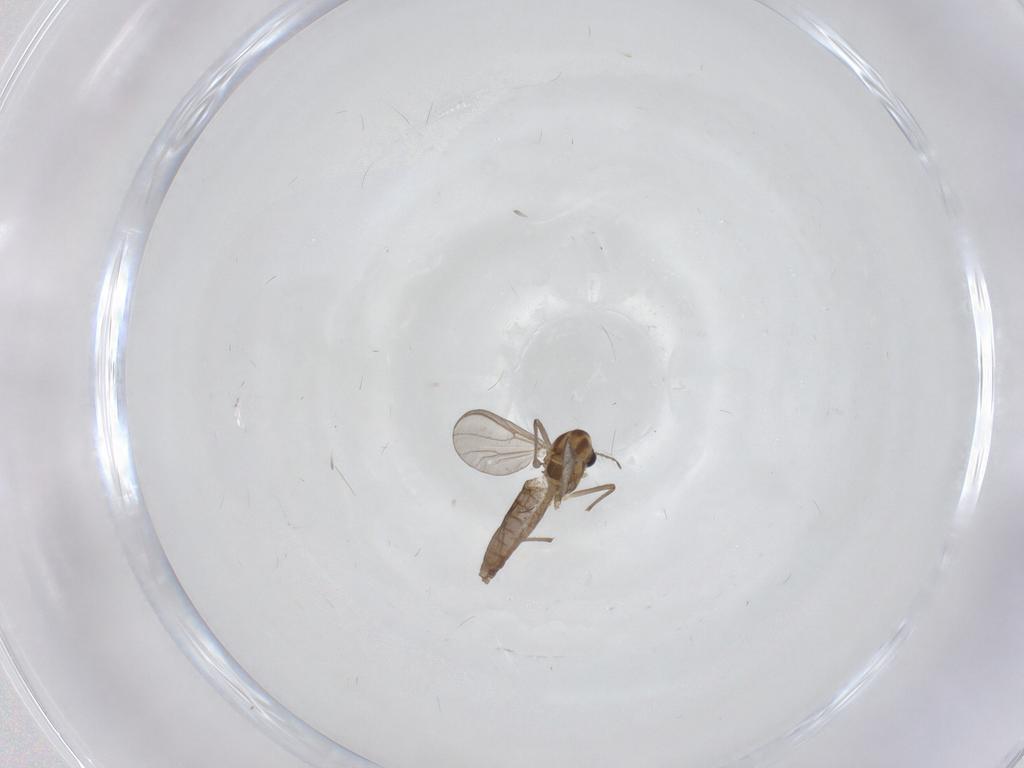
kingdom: Animalia
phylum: Arthropoda
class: Insecta
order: Diptera
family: Chironomidae
